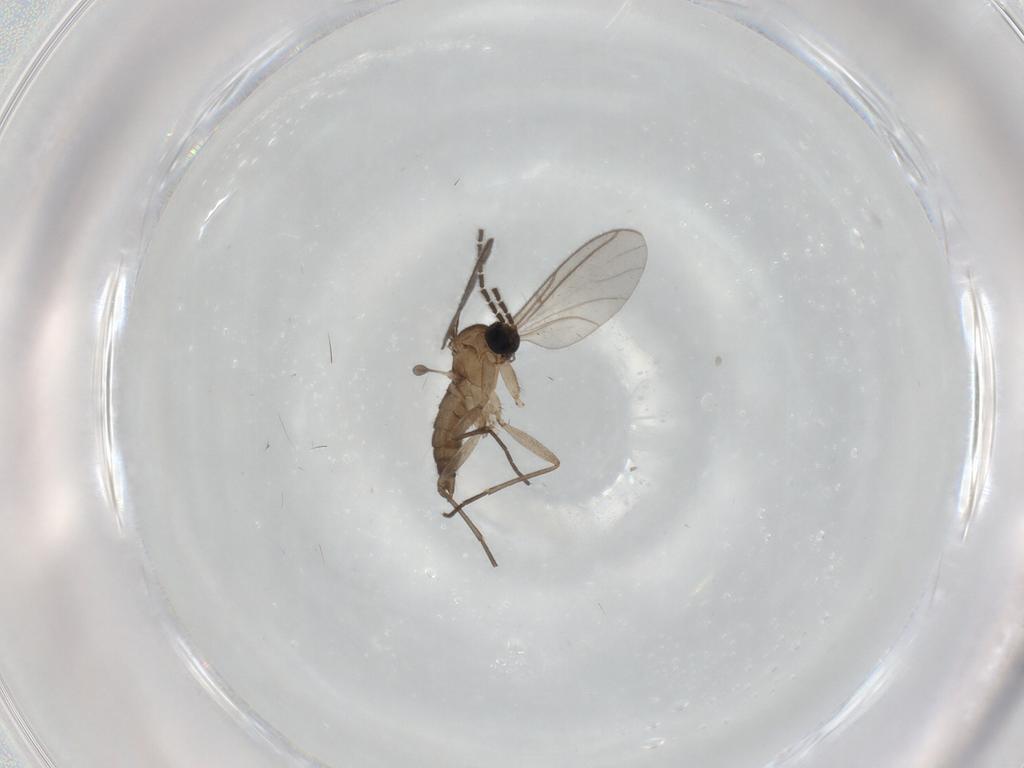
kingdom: Animalia
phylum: Arthropoda
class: Insecta
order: Diptera
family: Sciaridae
